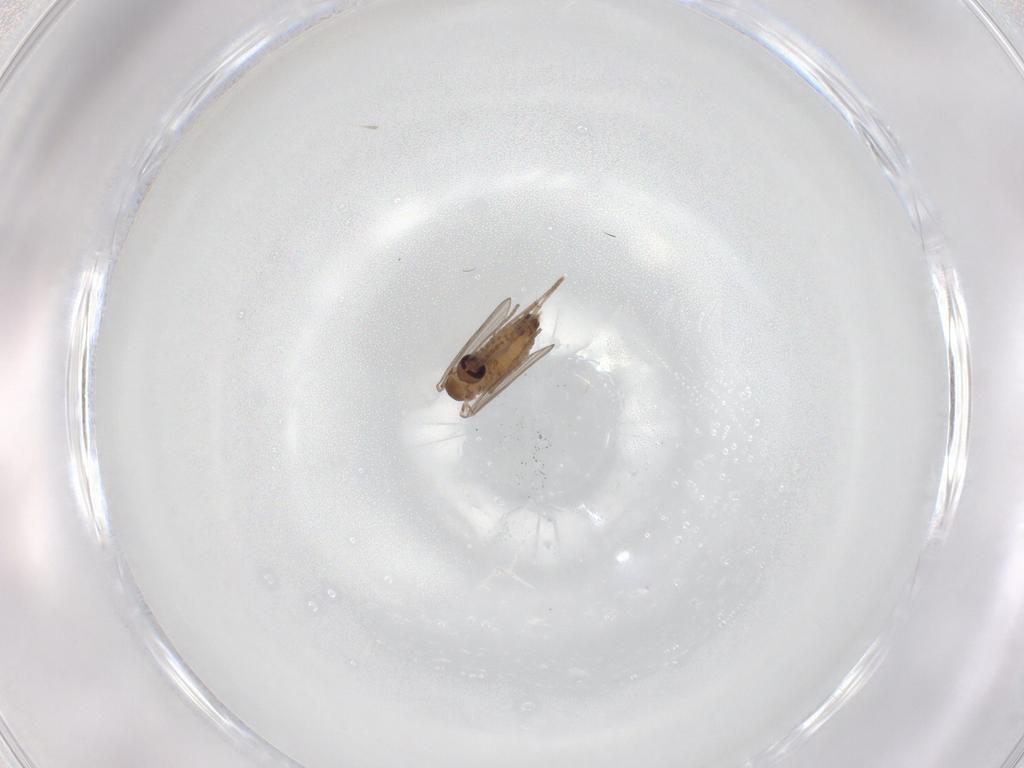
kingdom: Animalia
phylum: Arthropoda
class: Insecta
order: Diptera
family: Psychodidae
